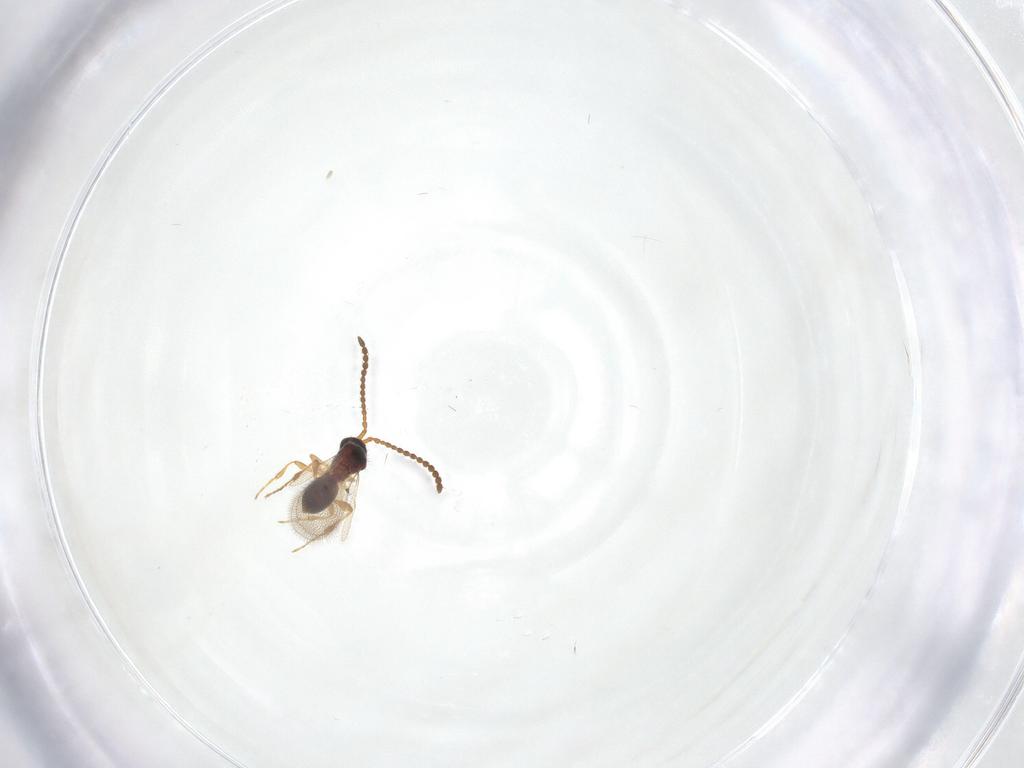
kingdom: Animalia
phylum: Arthropoda
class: Insecta
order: Hymenoptera
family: Diapriidae
